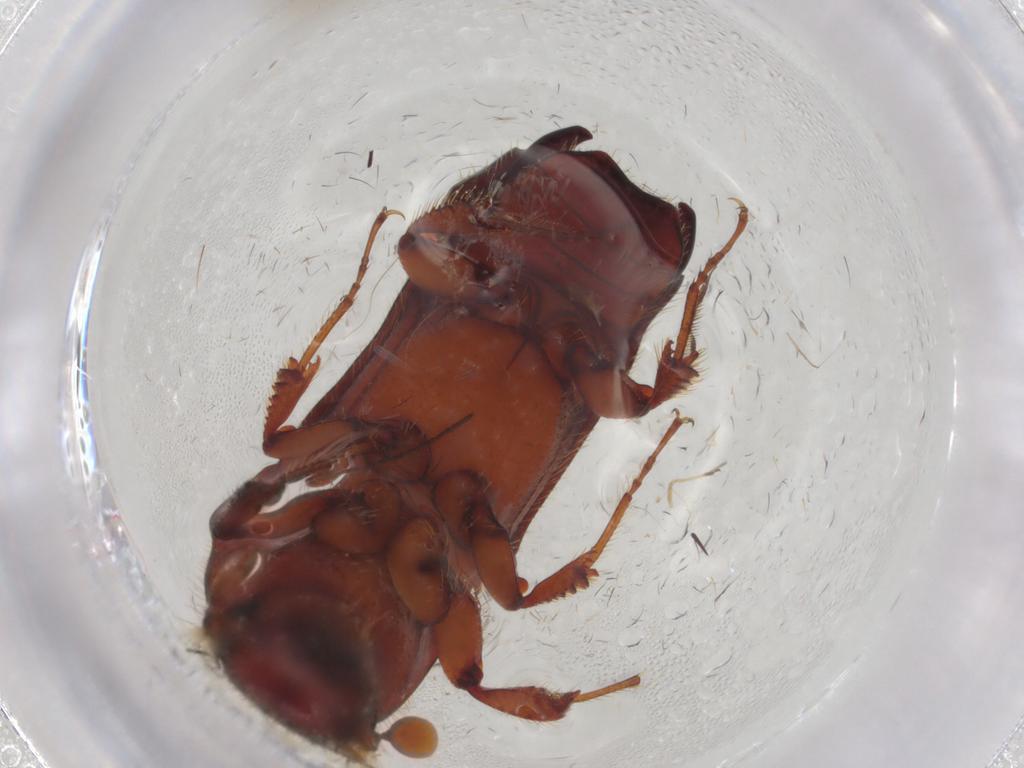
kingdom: Animalia
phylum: Arthropoda
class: Insecta
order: Coleoptera
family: Curculionidae
